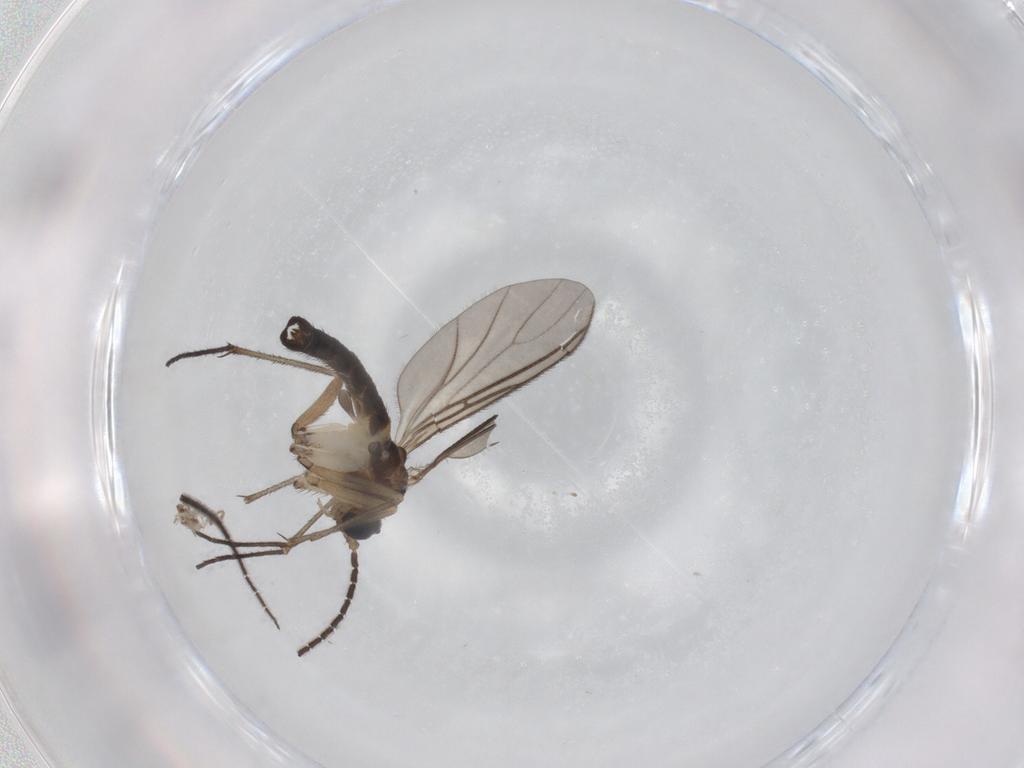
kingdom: Animalia
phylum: Arthropoda
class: Insecta
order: Diptera
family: Sciaridae
